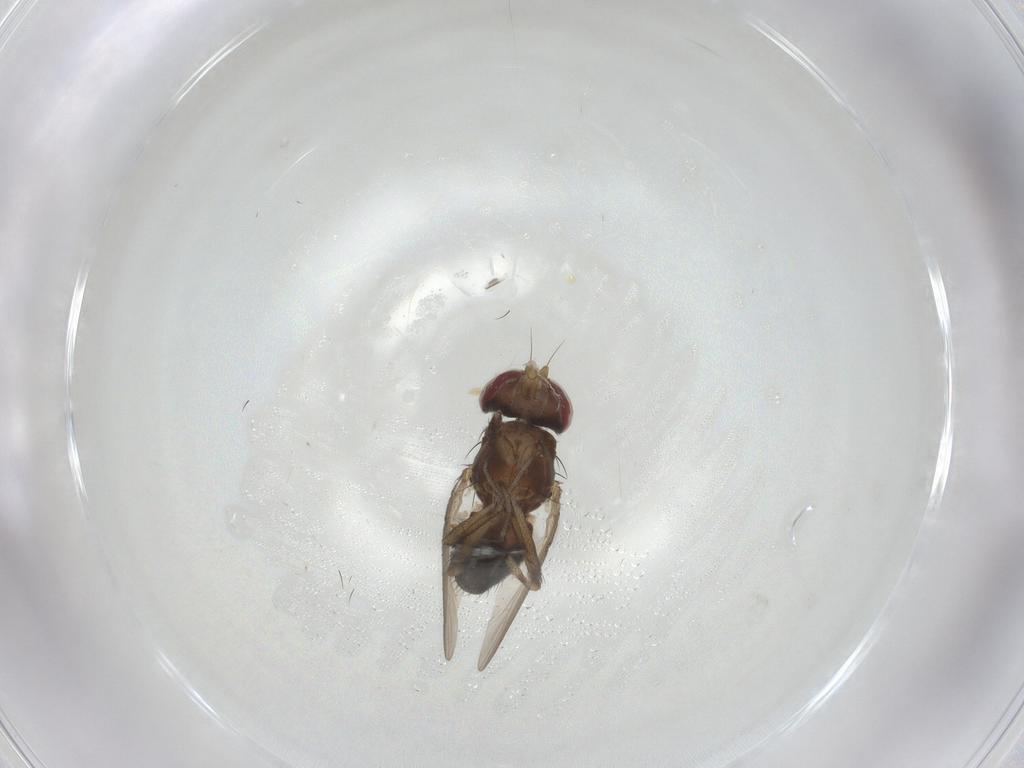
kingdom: Animalia
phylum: Arthropoda
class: Insecta
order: Diptera
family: Heleomyzidae
